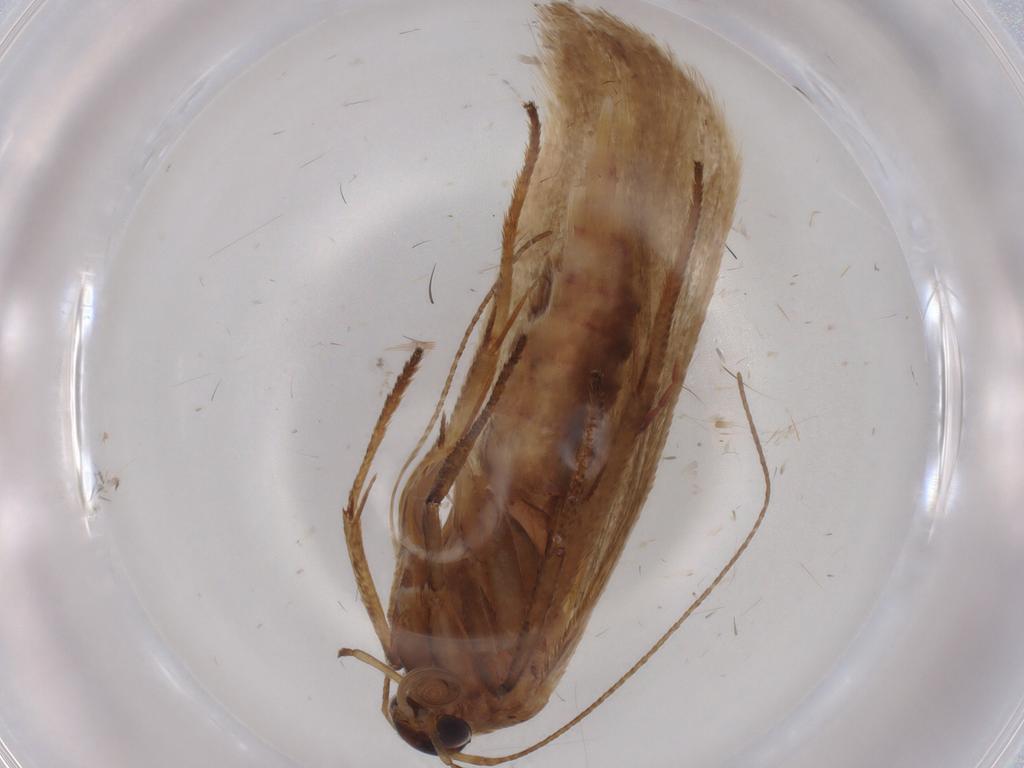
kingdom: Animalia
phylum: Arthropoda
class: Insecta
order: Lepidoptera
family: Blastobasidae
